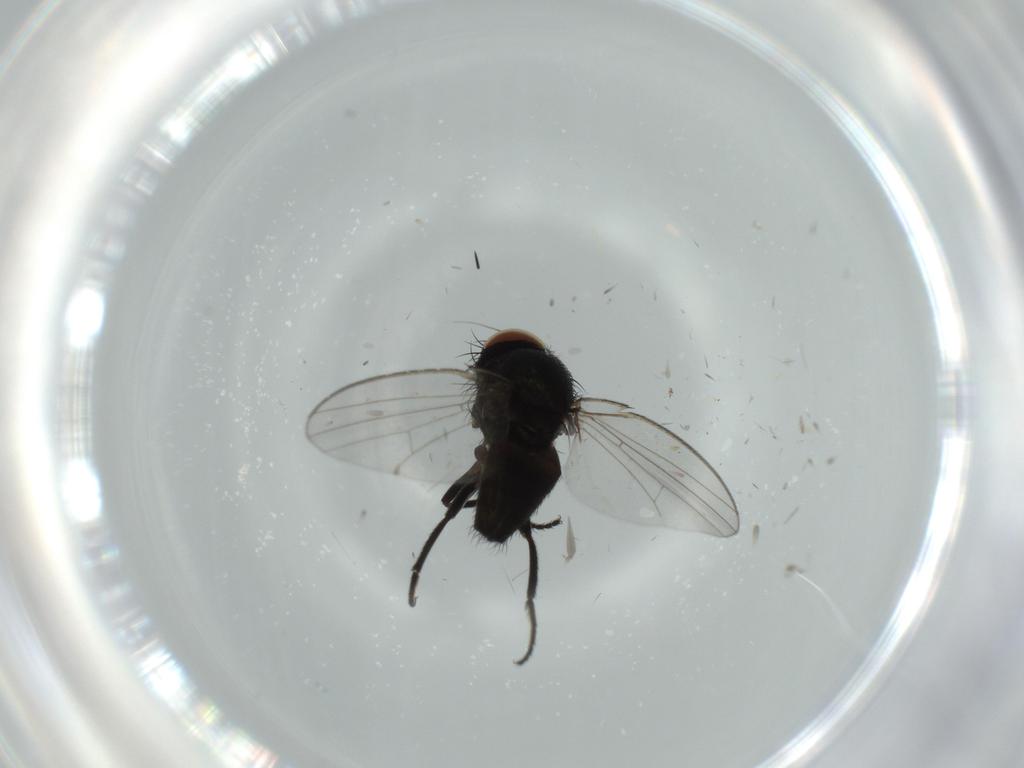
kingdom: Animalia
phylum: Arthropoda
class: Insecta
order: Diptera
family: Milichiidae
